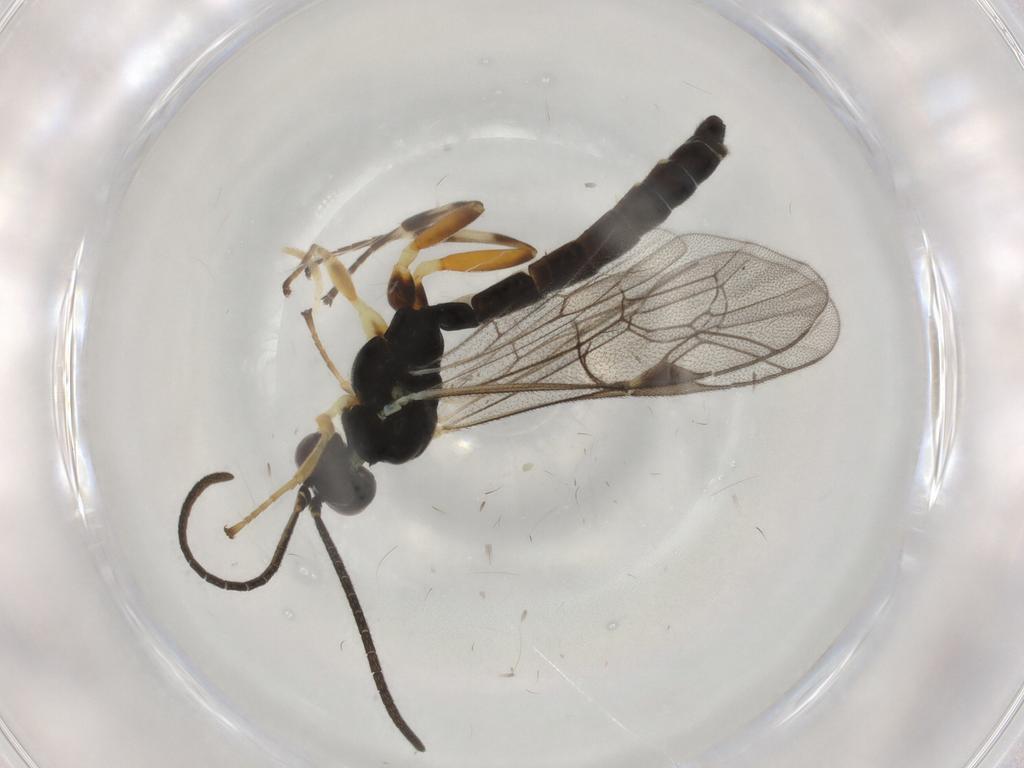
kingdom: Animalia
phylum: Arthropoda
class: Insecta
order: Hymenoptera
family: Ichneumonidae
